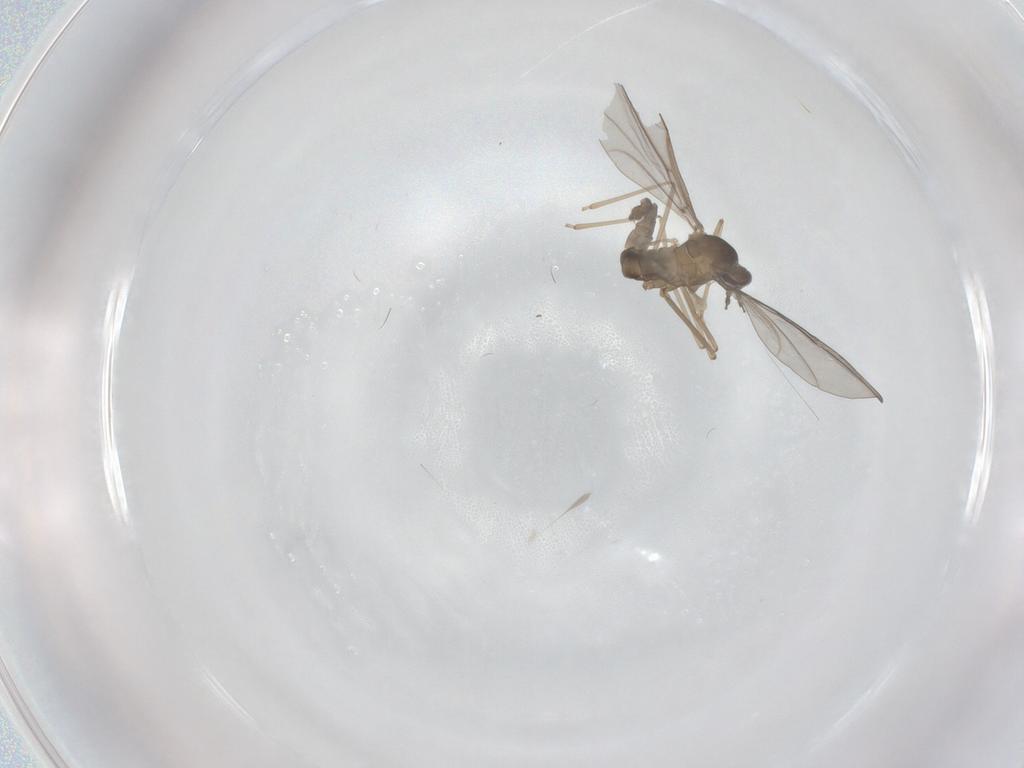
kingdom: Animalia
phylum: Arthropoda
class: Insecta
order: Diptera
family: Cecidomyiidae
